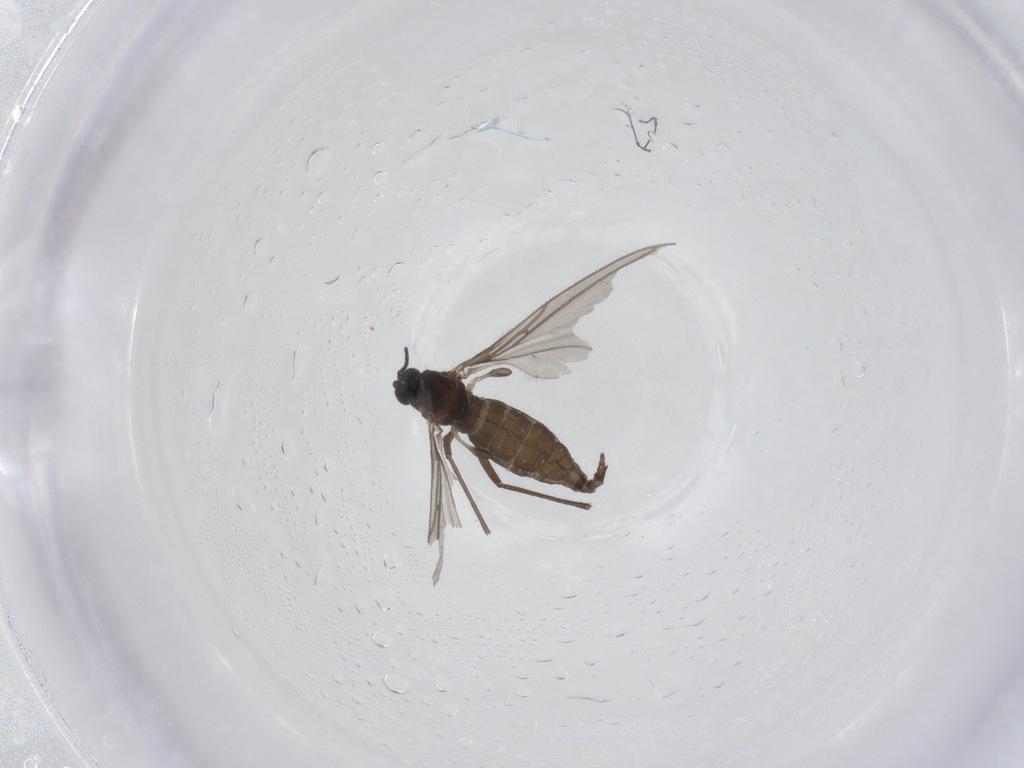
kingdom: Animalia
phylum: Arthropoda
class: Insecta
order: Diptera
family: Sciaridae
